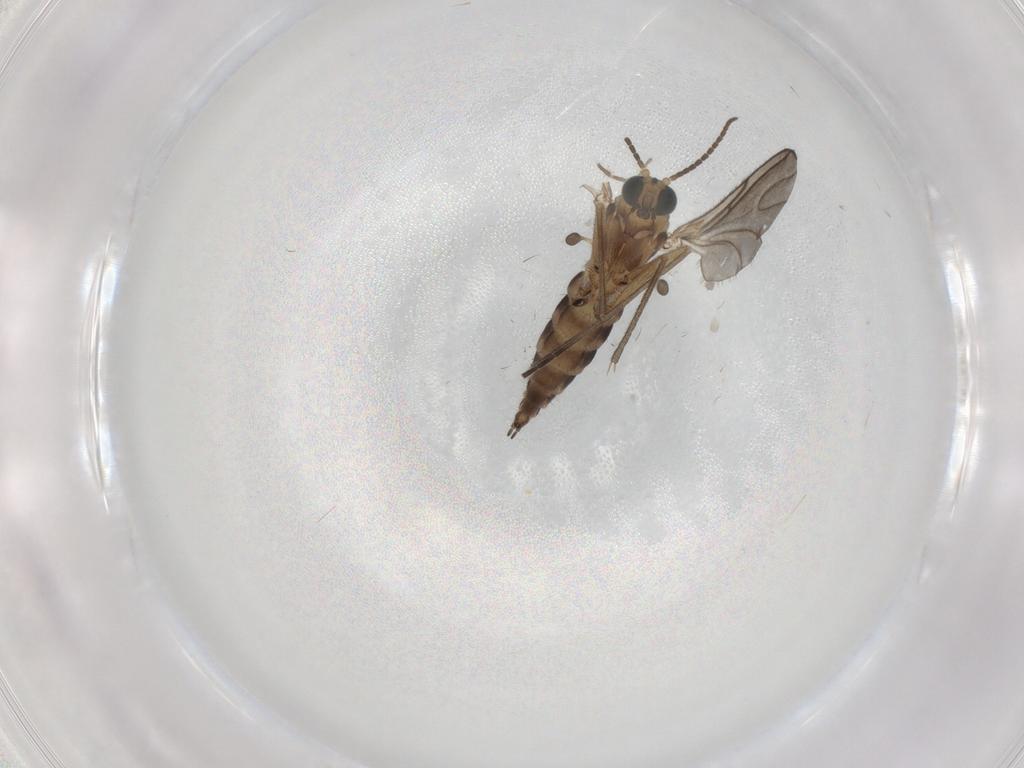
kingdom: Animalia
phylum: Arthropoda
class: Insecta
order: Diptera
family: Sciaridae
